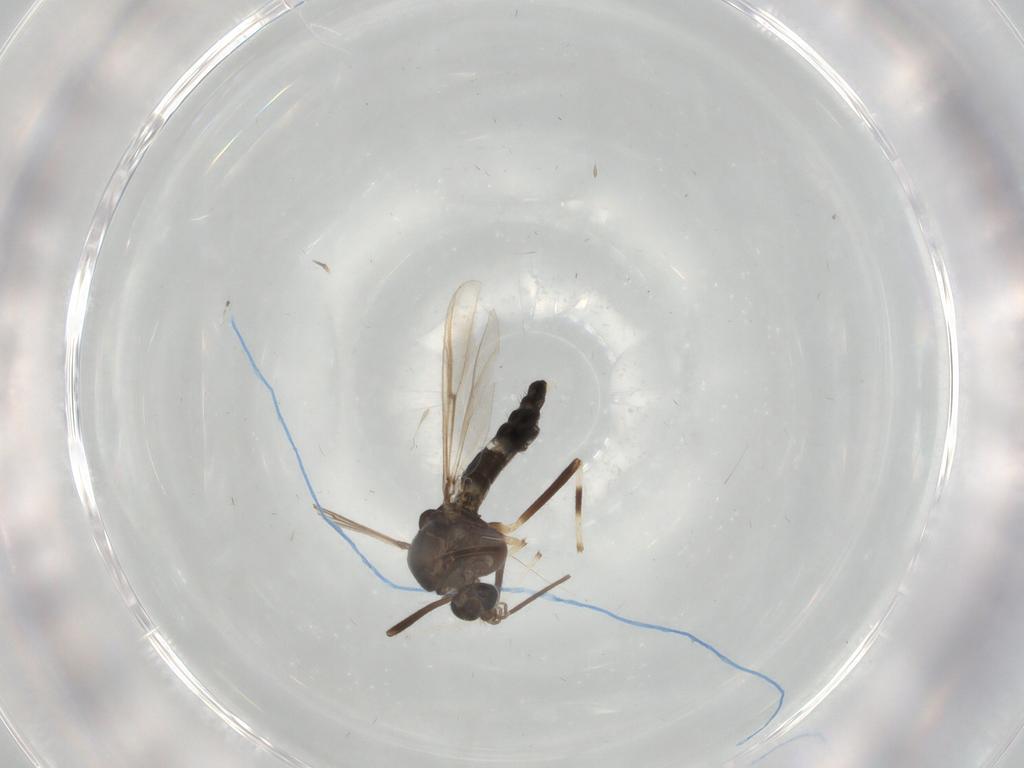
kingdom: Animalia
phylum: Arthropoda
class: Insecta
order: Diptera
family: Chironomidae
